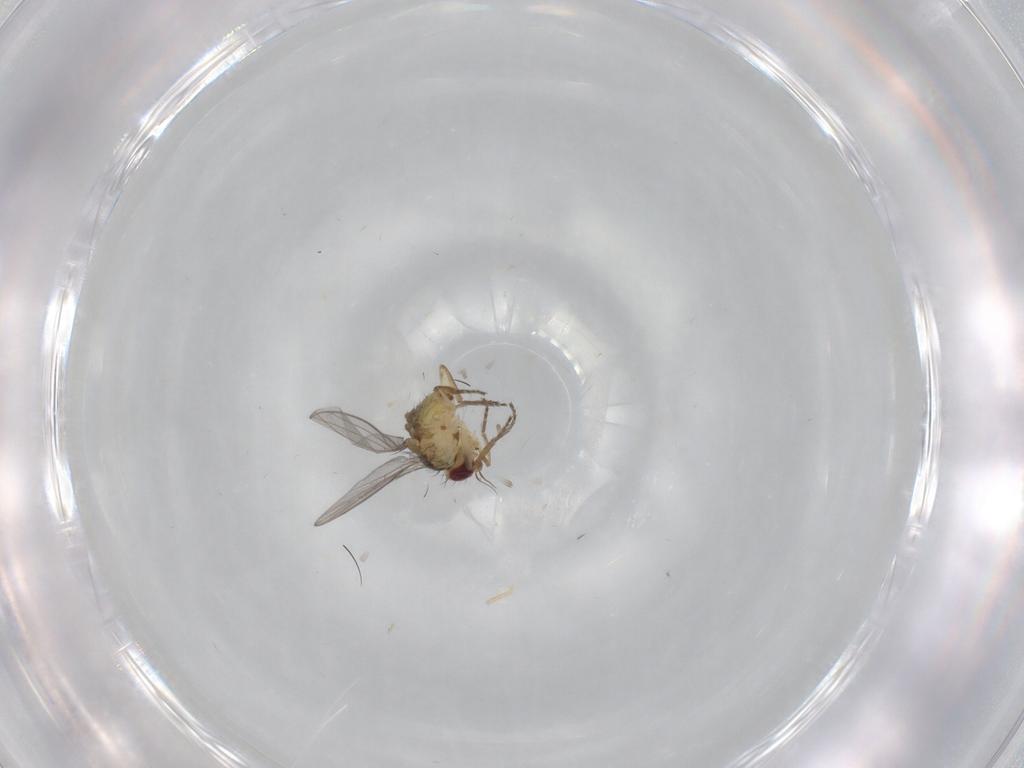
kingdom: Animalia
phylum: Arthropoda
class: Insecta
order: Diptera
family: Agromyzidae
